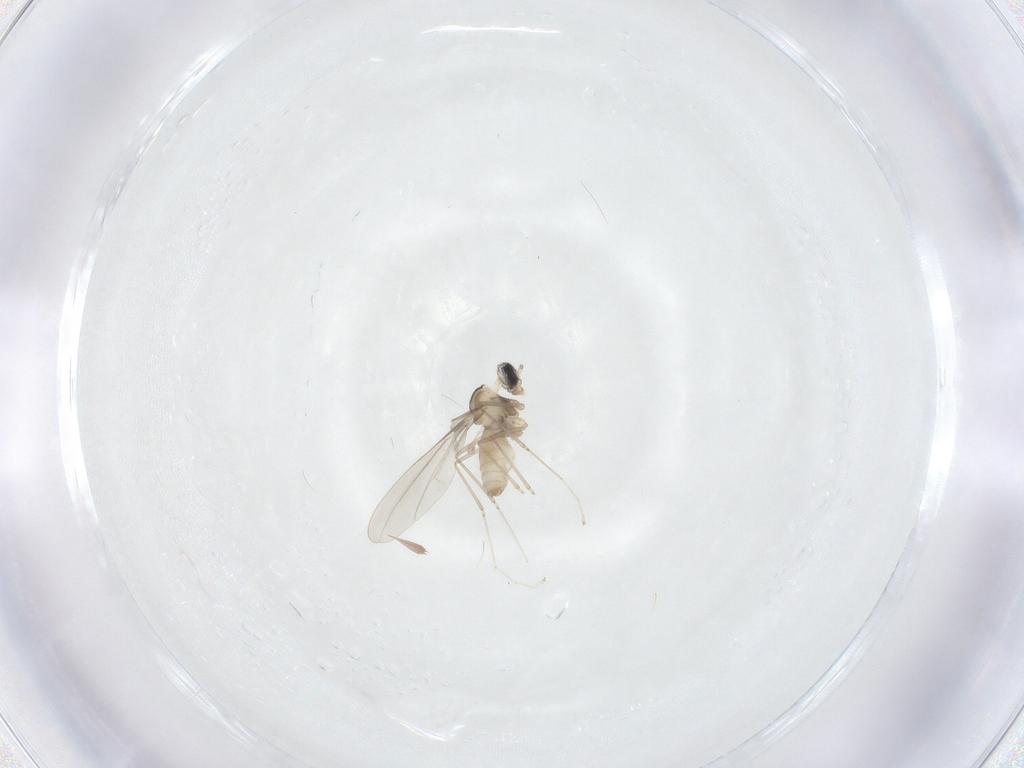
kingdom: Animalia
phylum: Arthropoda
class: Insecta
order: Diptera
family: Cecidomyiidae
